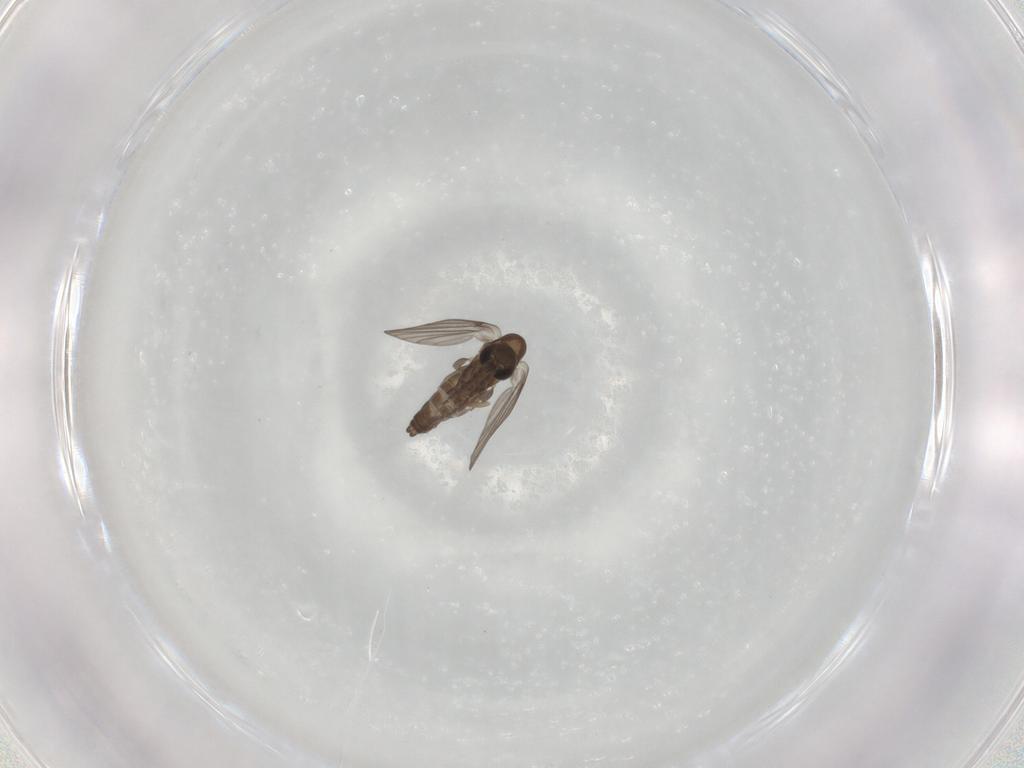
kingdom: Animalia
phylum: Arthropoda
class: Insecta
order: Diptera
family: Cecidomyiidae
